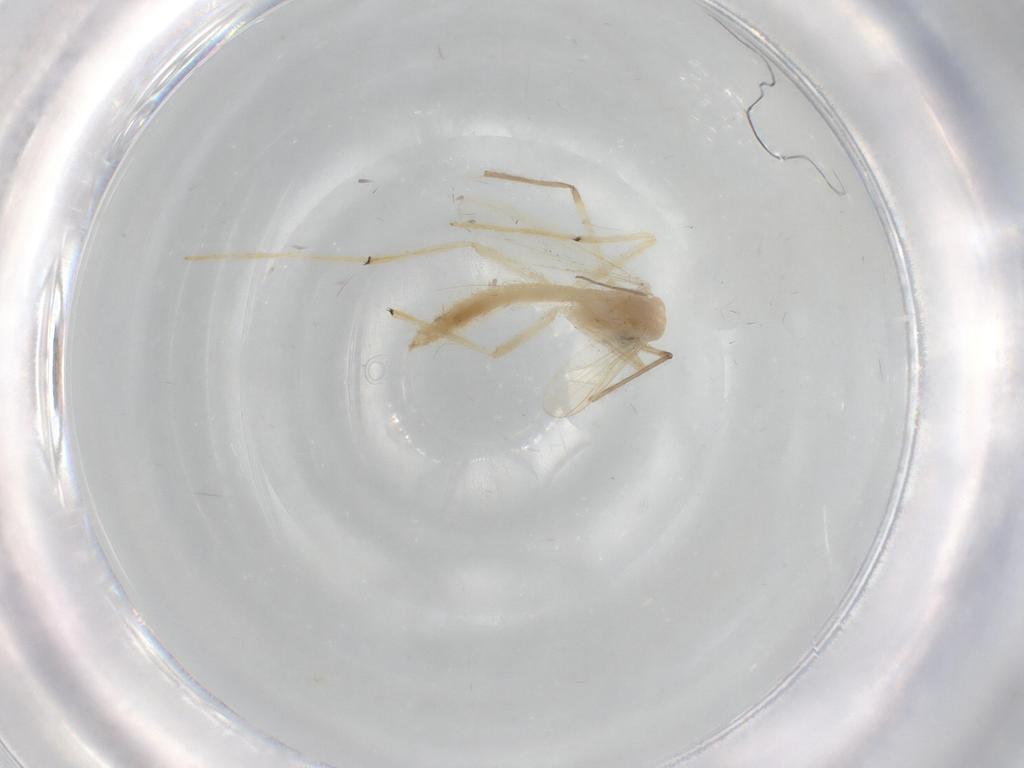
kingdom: Animalia
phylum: Arthropoda
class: Insecta
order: Diptera
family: Chironomidae
